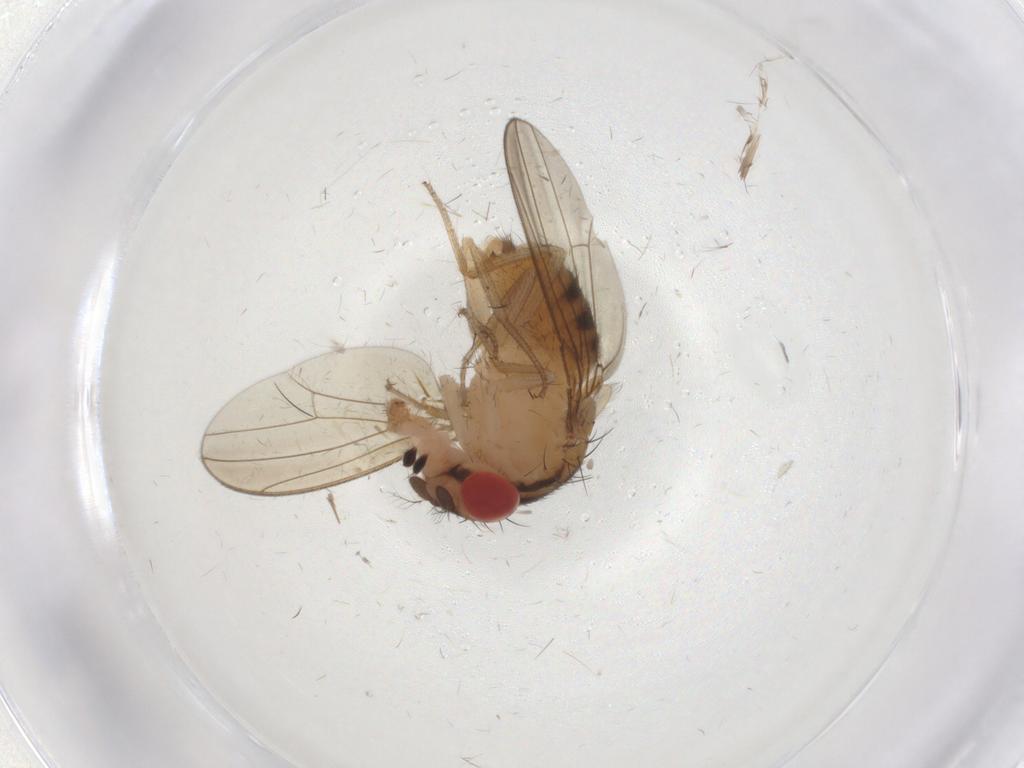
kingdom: Animalia
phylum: Arthropoda
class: Insecta
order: Diptera
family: Drosophilidae
